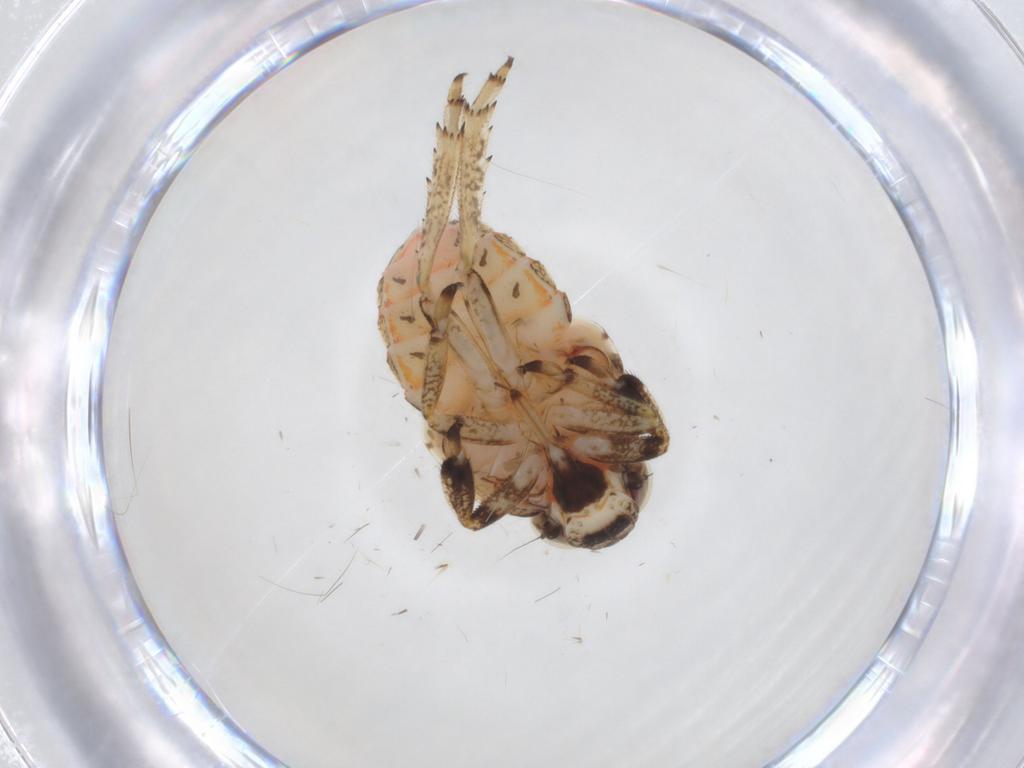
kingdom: Animalia
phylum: Arthropoda
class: Insecta
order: Hemiptera
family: Issidae
